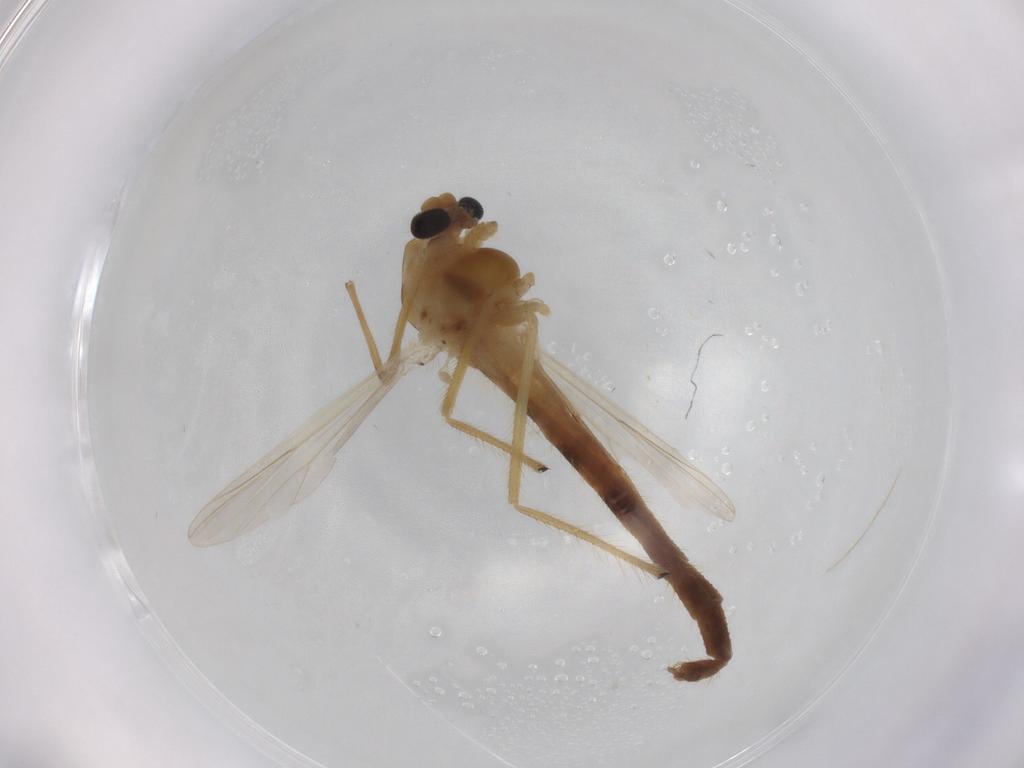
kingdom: Animalia
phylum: Arthropoda
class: Insecta
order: Diptera
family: Chironomidae
